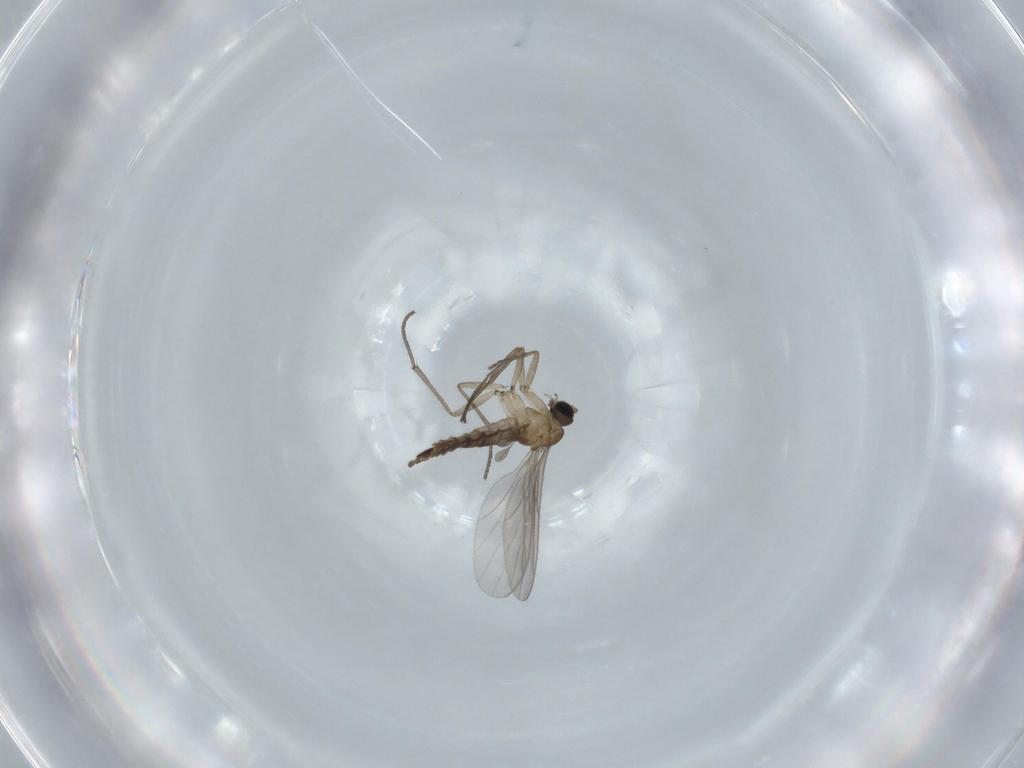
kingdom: Animalia
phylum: Arthropoda
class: Insecta
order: Diptera
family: Sciaridae
